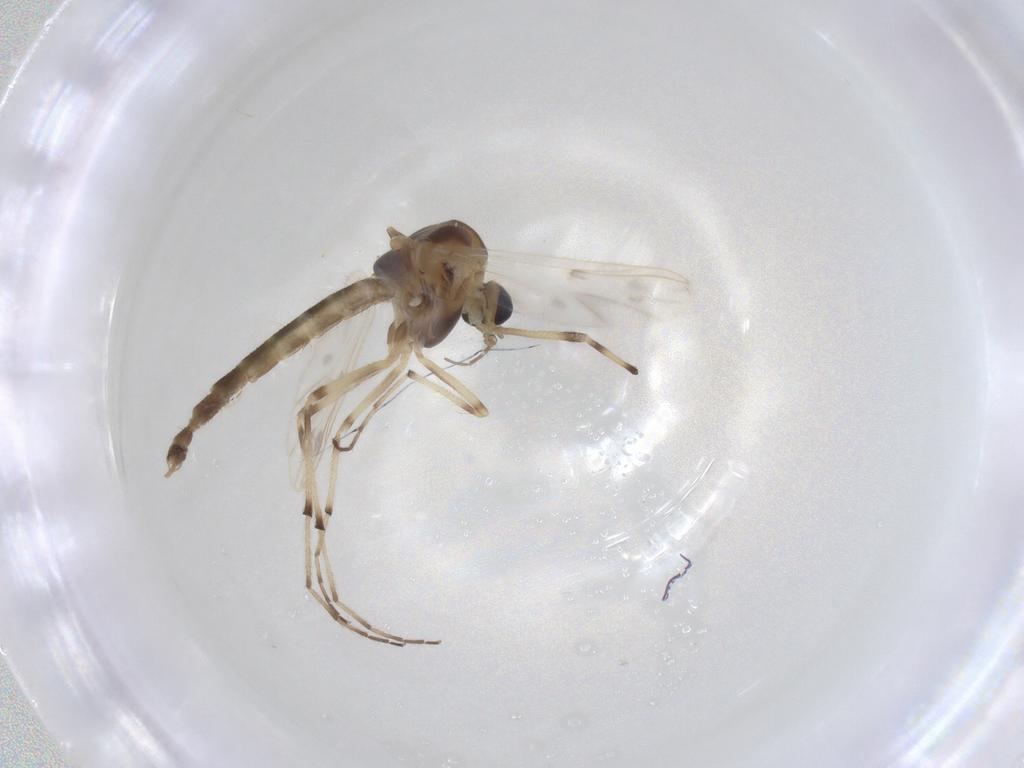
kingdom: Animalia
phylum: Arthropoda
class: Insecta
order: Diptera
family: Chironomidae
